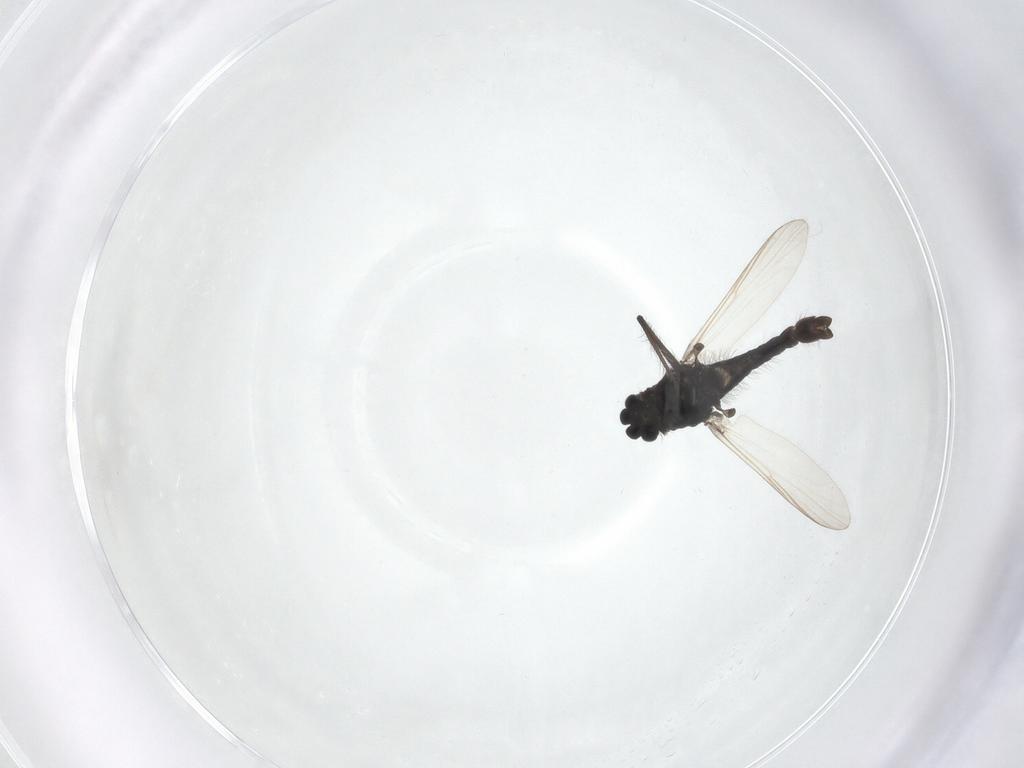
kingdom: Animalia
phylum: Arthropoda
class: Insecta
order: Diptera
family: Chironomidae
